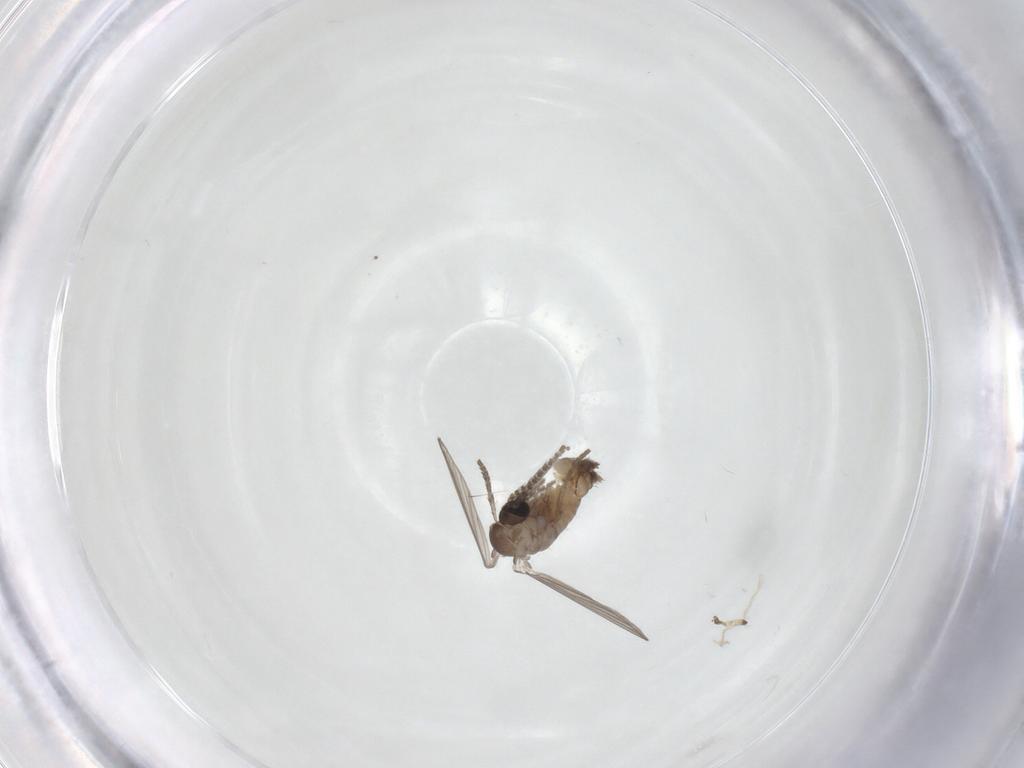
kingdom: Animalia
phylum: Arthropoda
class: Insecta
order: Diptera
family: Psychodidae
